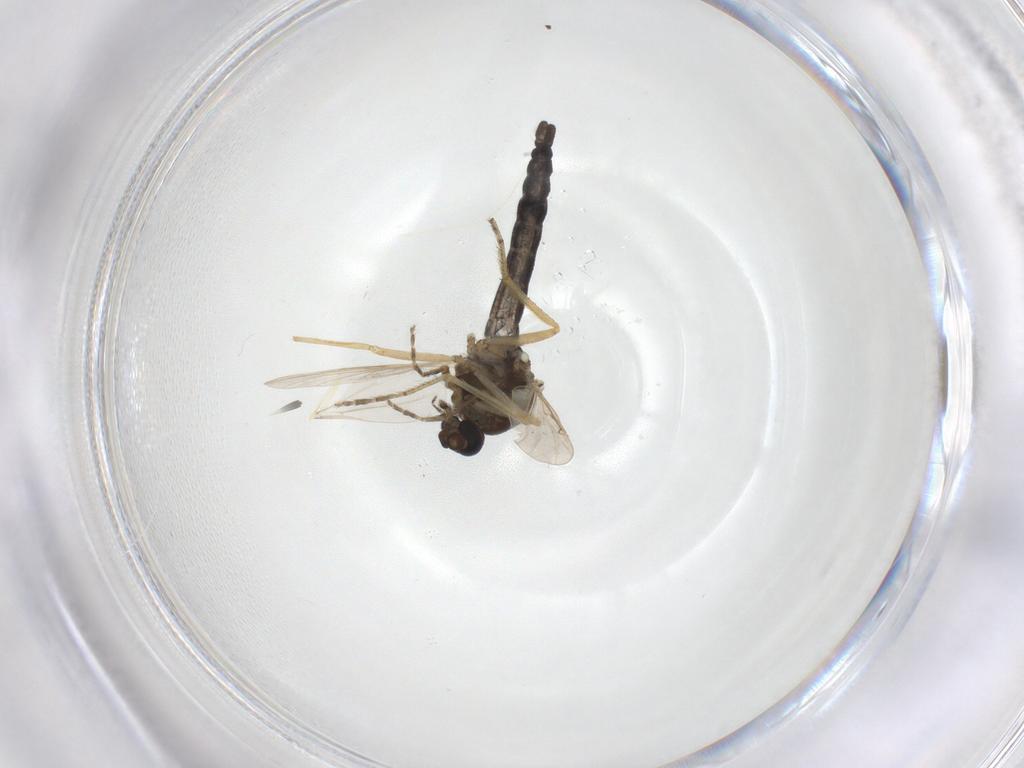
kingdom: Animalia
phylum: Arthropoda
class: Insecta
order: Diptera
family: Ceratopogonidae
